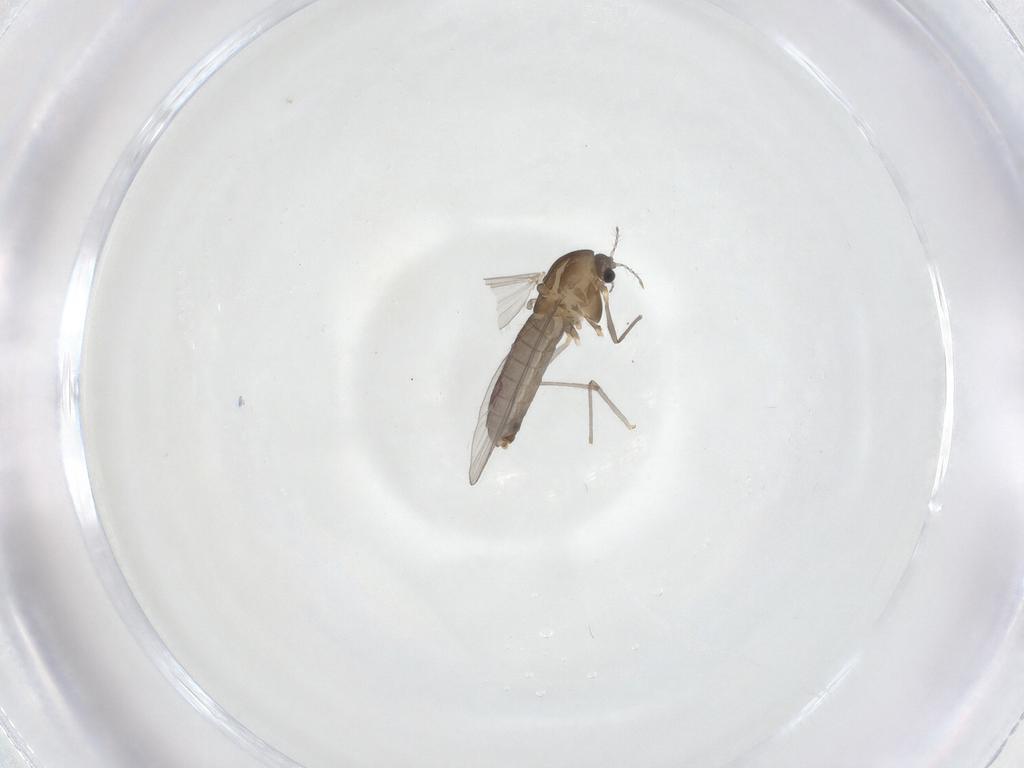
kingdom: Animalia
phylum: Arthropoda
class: Insecta
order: Diptera
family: Chironomidae
